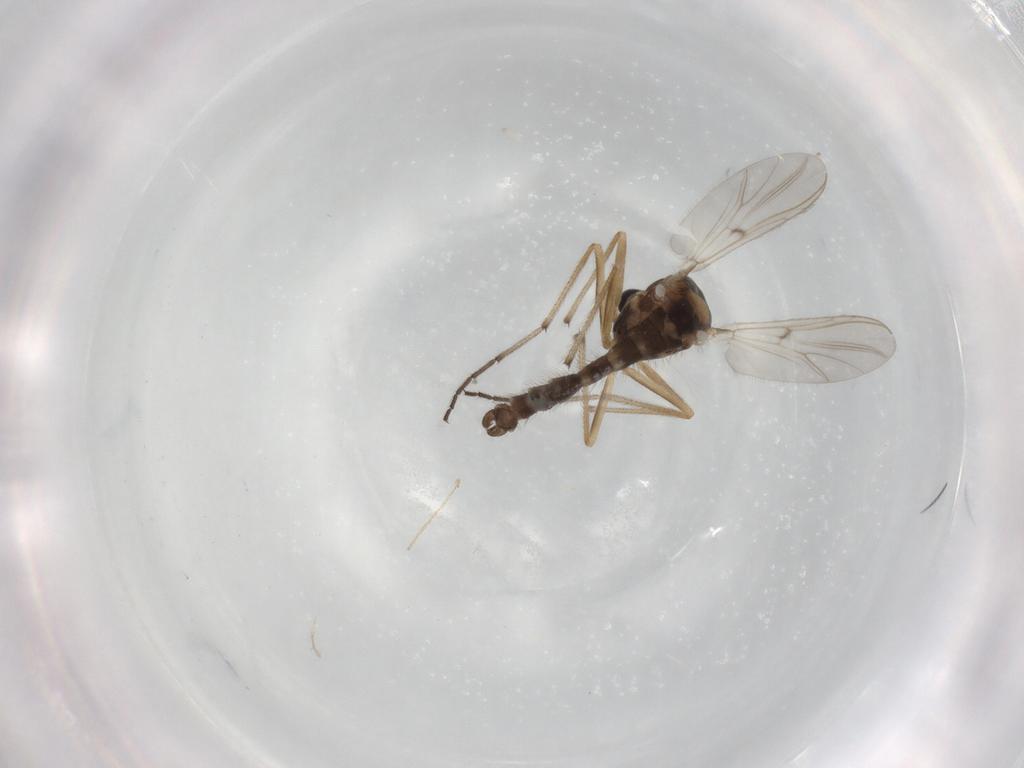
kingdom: Animalia
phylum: Arthropoda
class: Insecta
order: Diptera
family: Chironomidae
